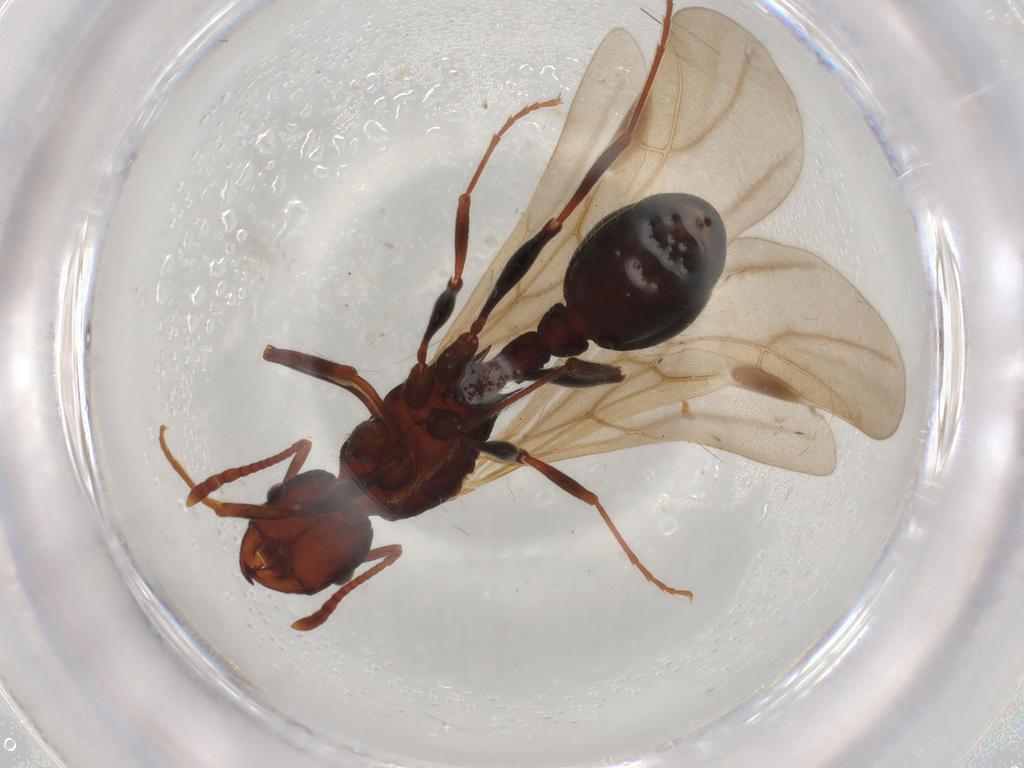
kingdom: Animalia
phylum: Arthropoda
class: Insecta
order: Hymenoptera
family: Formicidae
